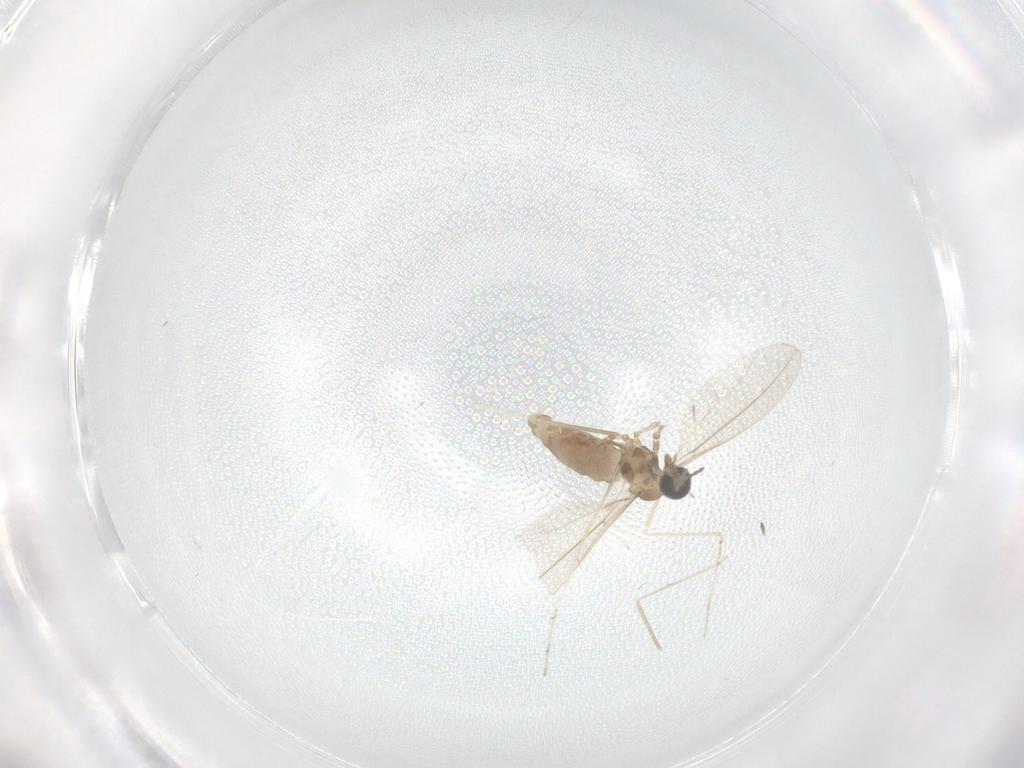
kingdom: Animalia
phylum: Arthropoda
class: Insecta
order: Diptera
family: Cecidomyiidae
